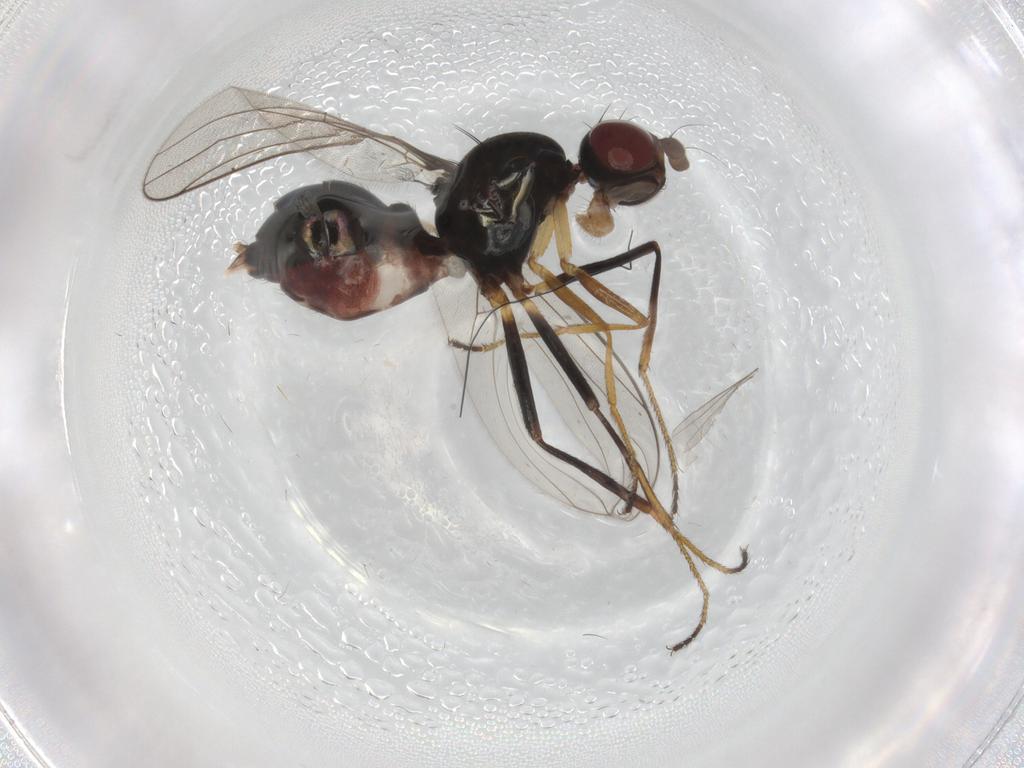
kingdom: Animalia
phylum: Arthropoda
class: Insecta
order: Diptera
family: Sepsidae
